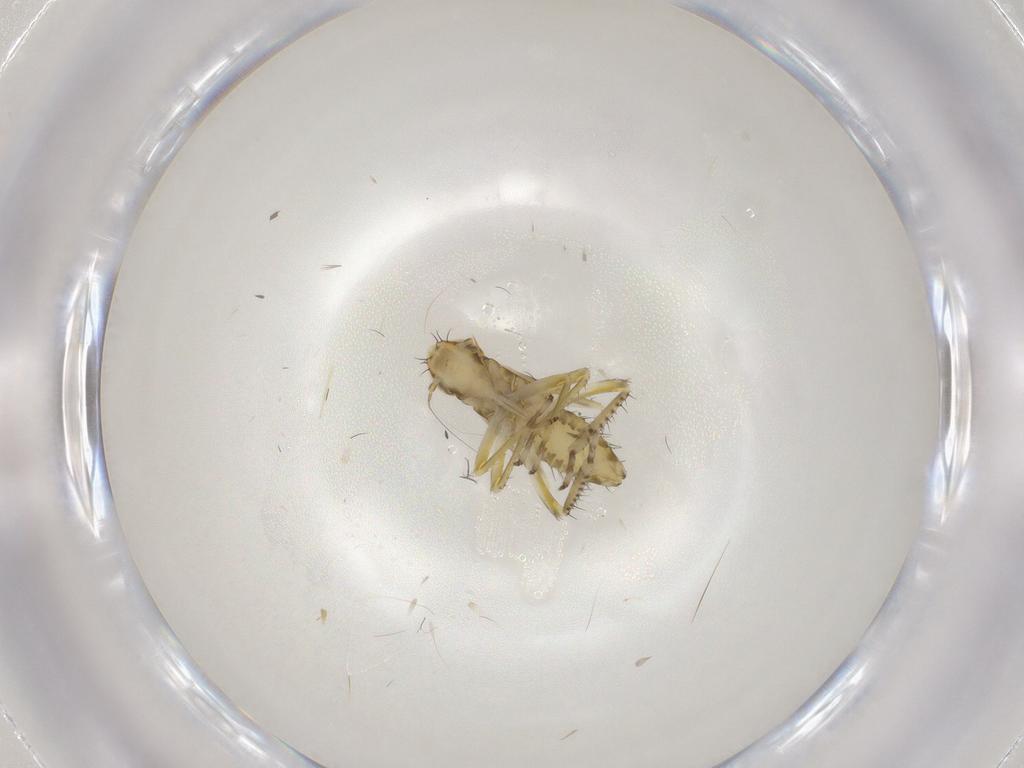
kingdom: Animalia
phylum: Arthropoda
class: Insecta
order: Hemiptera
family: Cicadellidae
